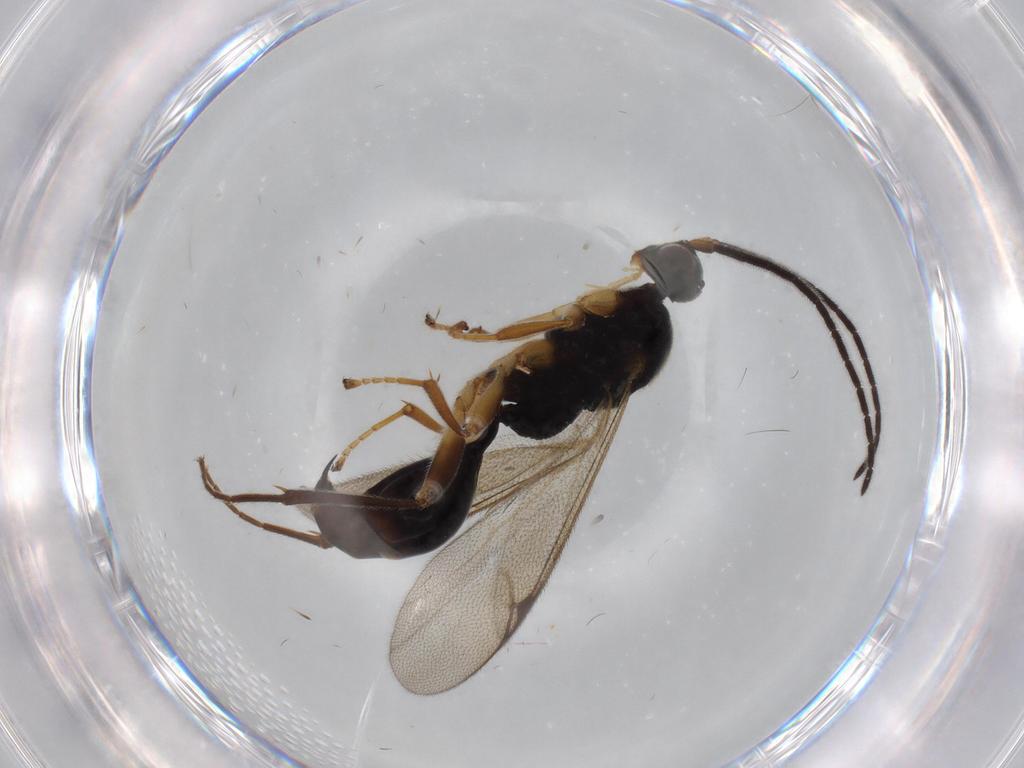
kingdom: Animalia
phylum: Arthropoda
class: Insecta
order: Hymenoptera
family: Proctotrupidae
